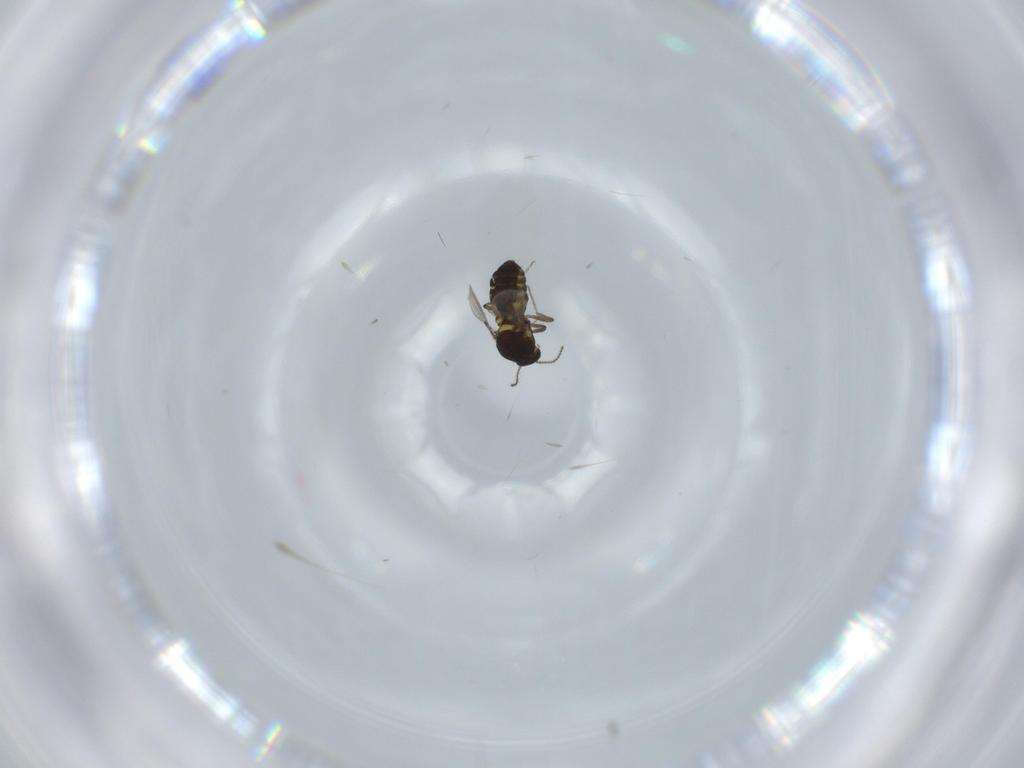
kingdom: Animalia
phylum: Arthropoda
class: Insecta
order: Diptera
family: Ceratopogonidae
